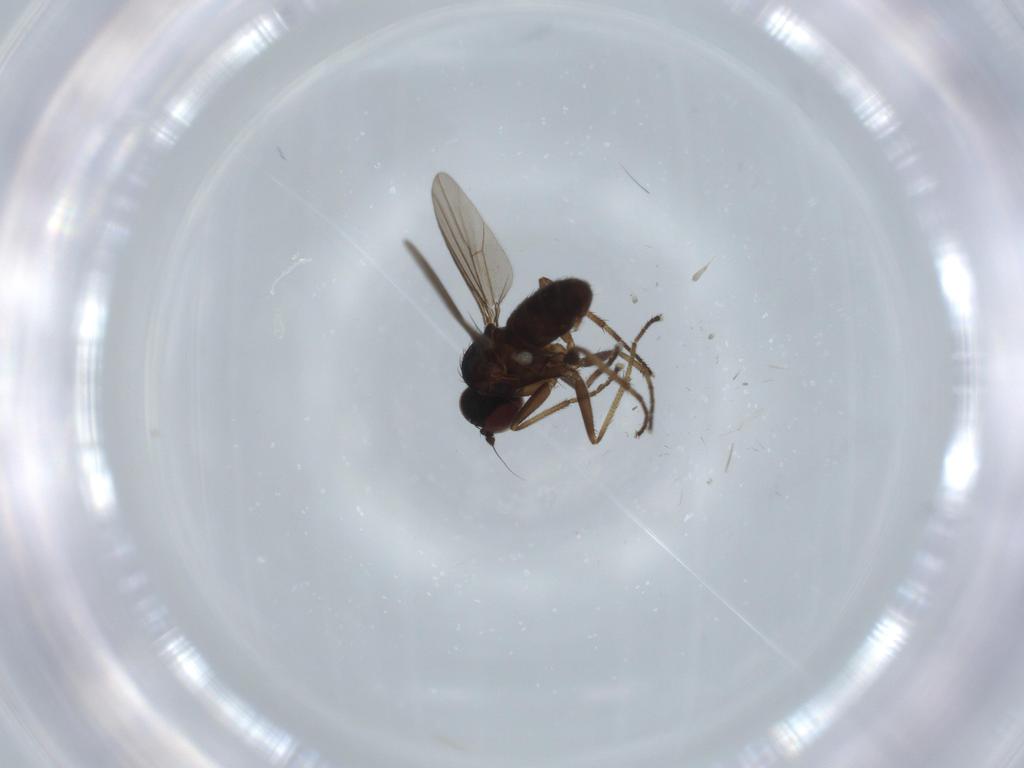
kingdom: Animalia
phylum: Arthropoda
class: Insecta
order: Diptera
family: Dolichopodidae
